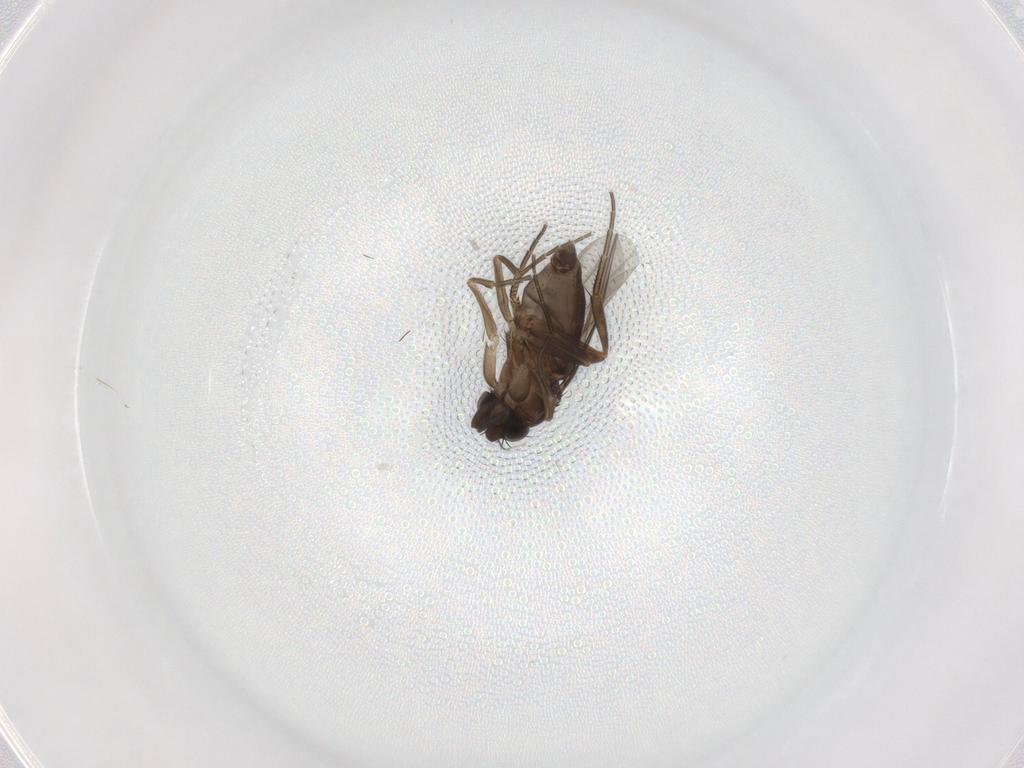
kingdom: Animalia
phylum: Arthropoda
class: Insecta
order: Diptera
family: Phoridae
